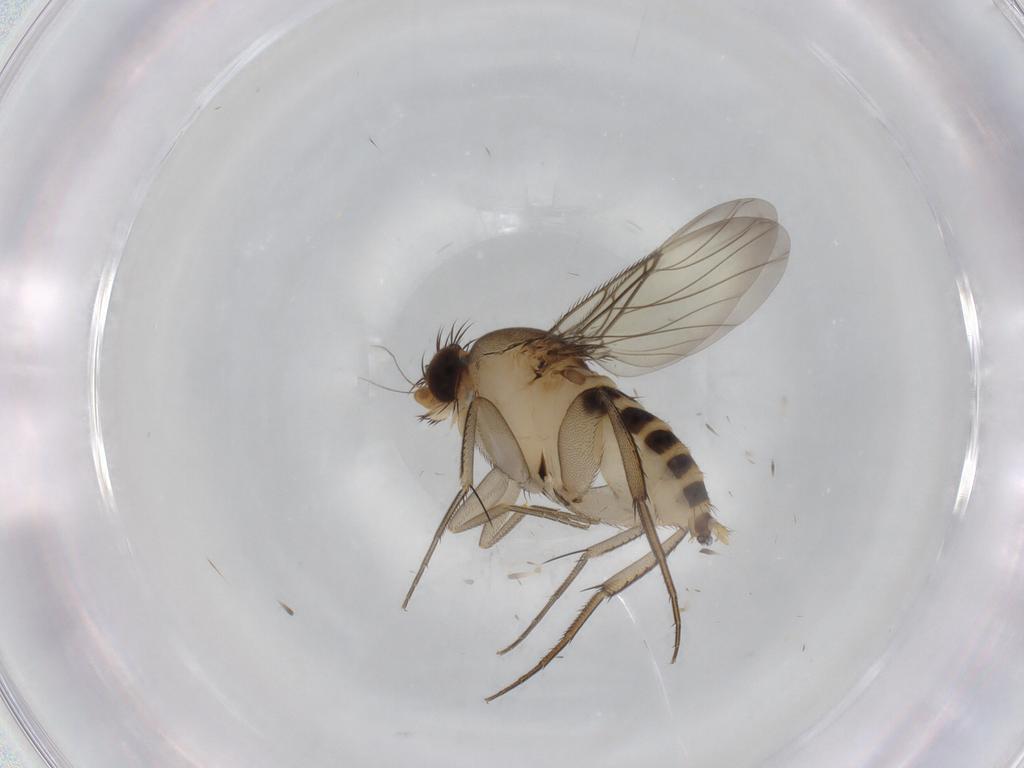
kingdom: Animalia
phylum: Arthropoda
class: Insecta
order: Diptera
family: Phoridae
